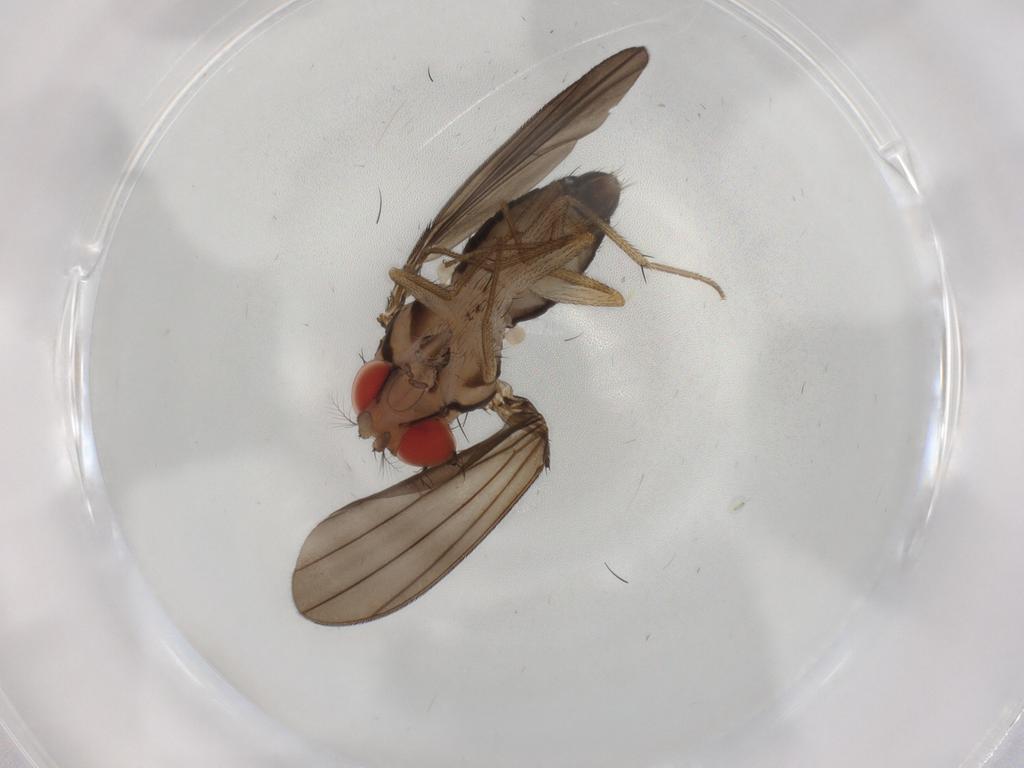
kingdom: Animalia
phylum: Arthropoda
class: Insecta
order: Diptera
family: Drosophilidae
